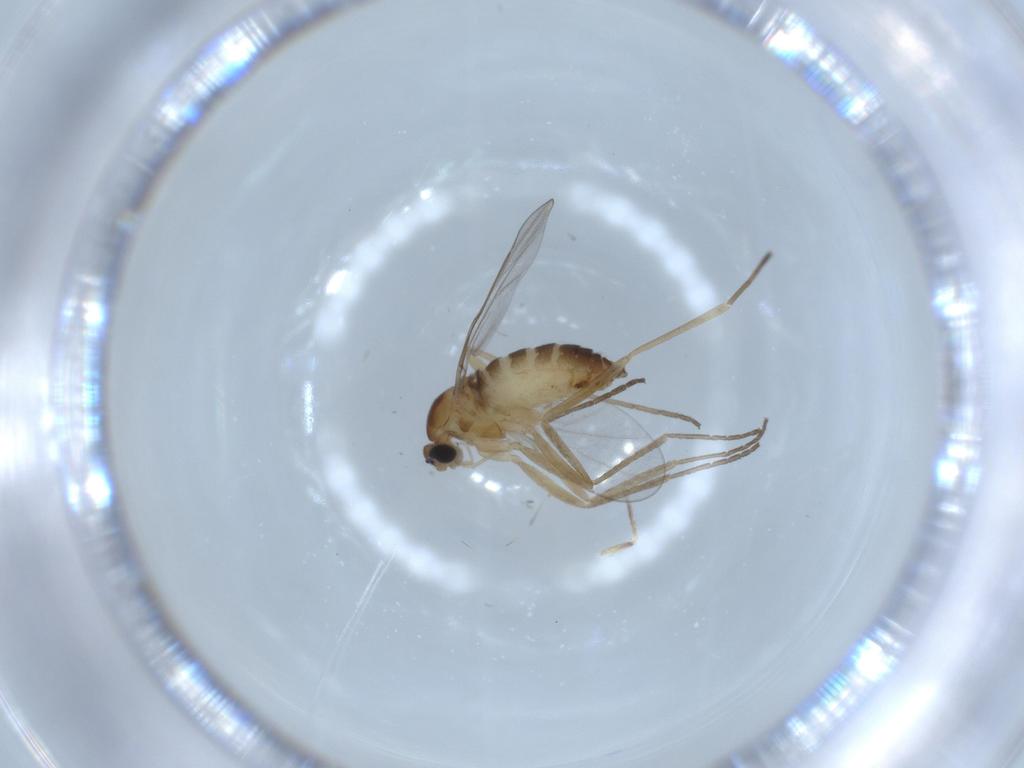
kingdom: Animalia
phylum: Arthropoda
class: Insecta
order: Diptera
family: Cecidomyiidae
